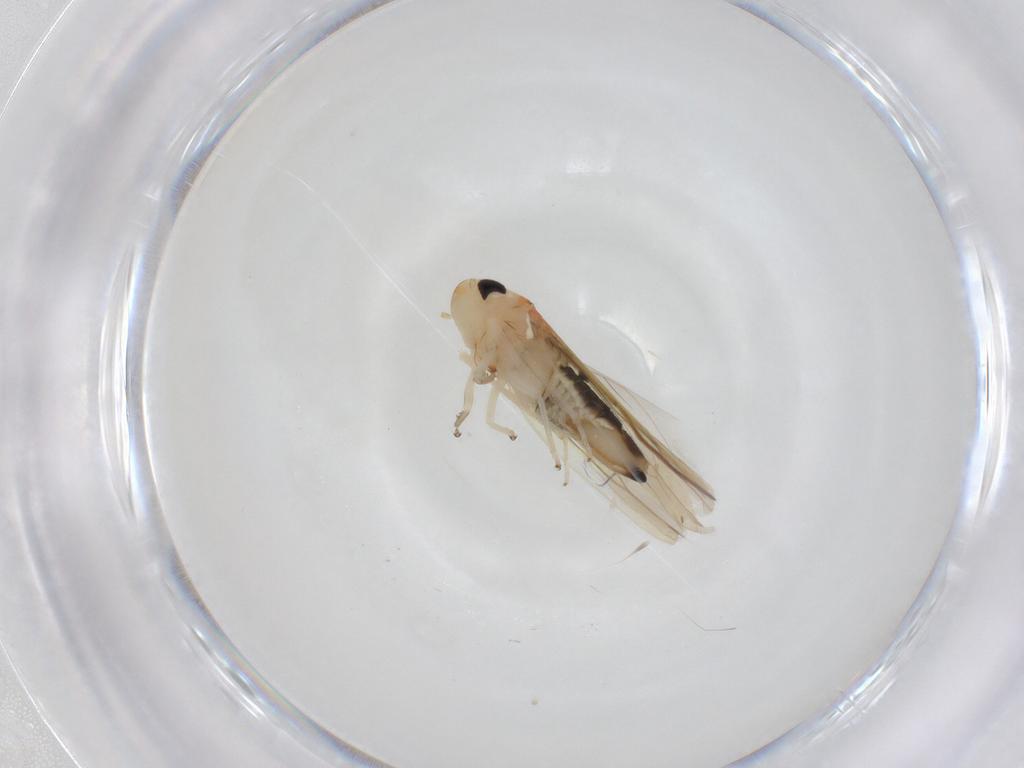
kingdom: Animalia
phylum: Arthropoda
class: Insecta
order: Hemiptera
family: Cicadellidae
